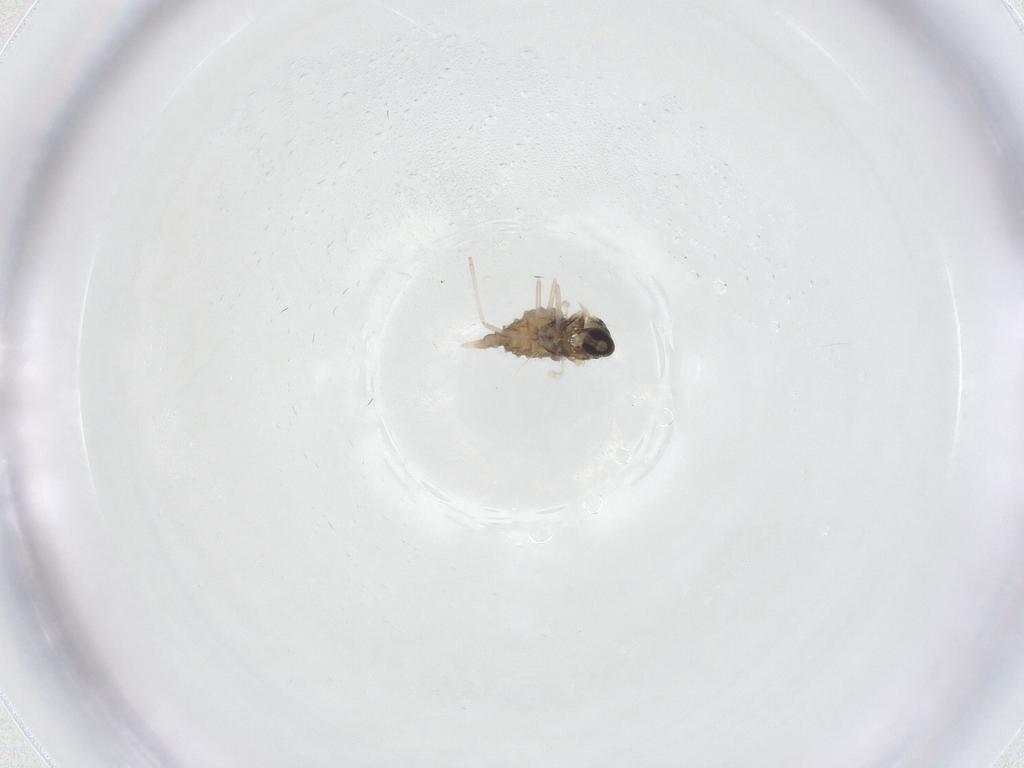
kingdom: Animalia
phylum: Arthropoda
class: Insecta
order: Diptera
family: Cecidomyiidae
